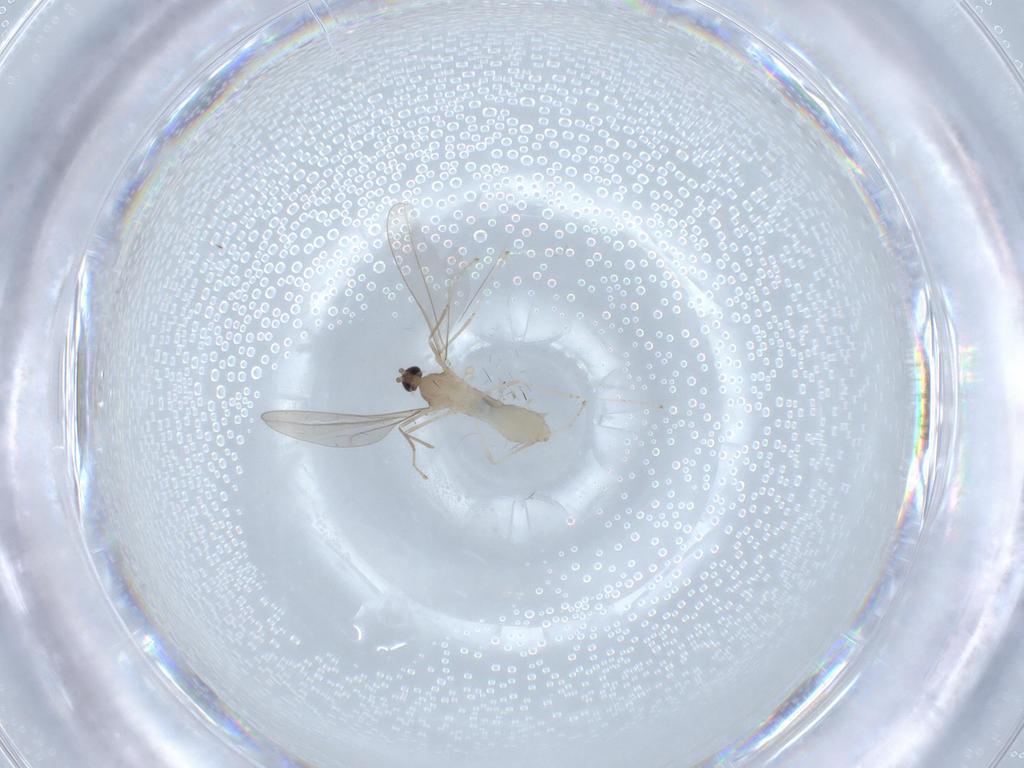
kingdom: Animalia
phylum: Arthropoda
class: Insecta
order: Diptera
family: Cecidomyiidae
